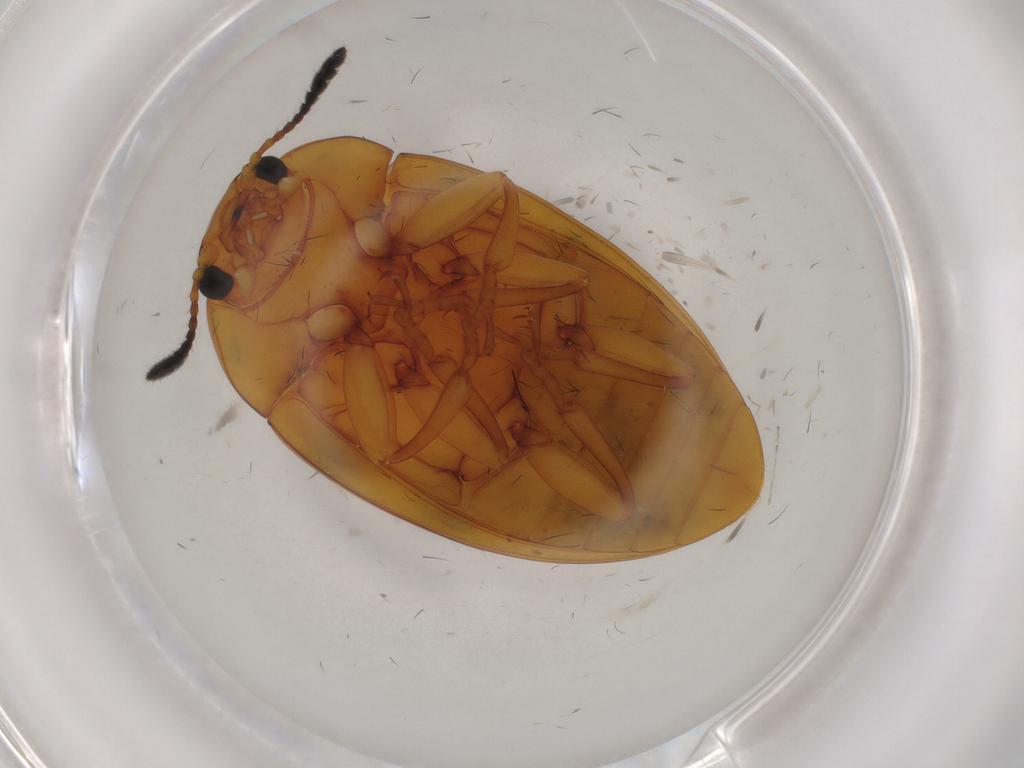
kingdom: Animalia
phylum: Arthropoda
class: Insecta
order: Coleoptera
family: Erotylidae
